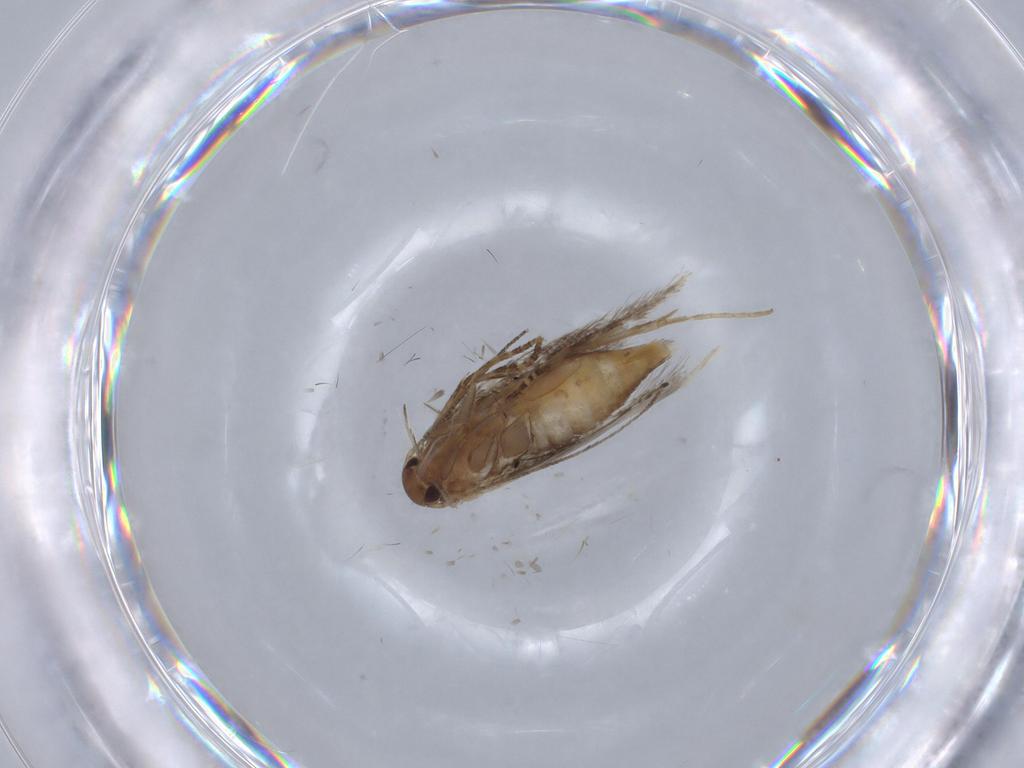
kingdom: Animalia
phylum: Arthropoda
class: Insecta
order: Lepidoptera
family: Elachistidae
